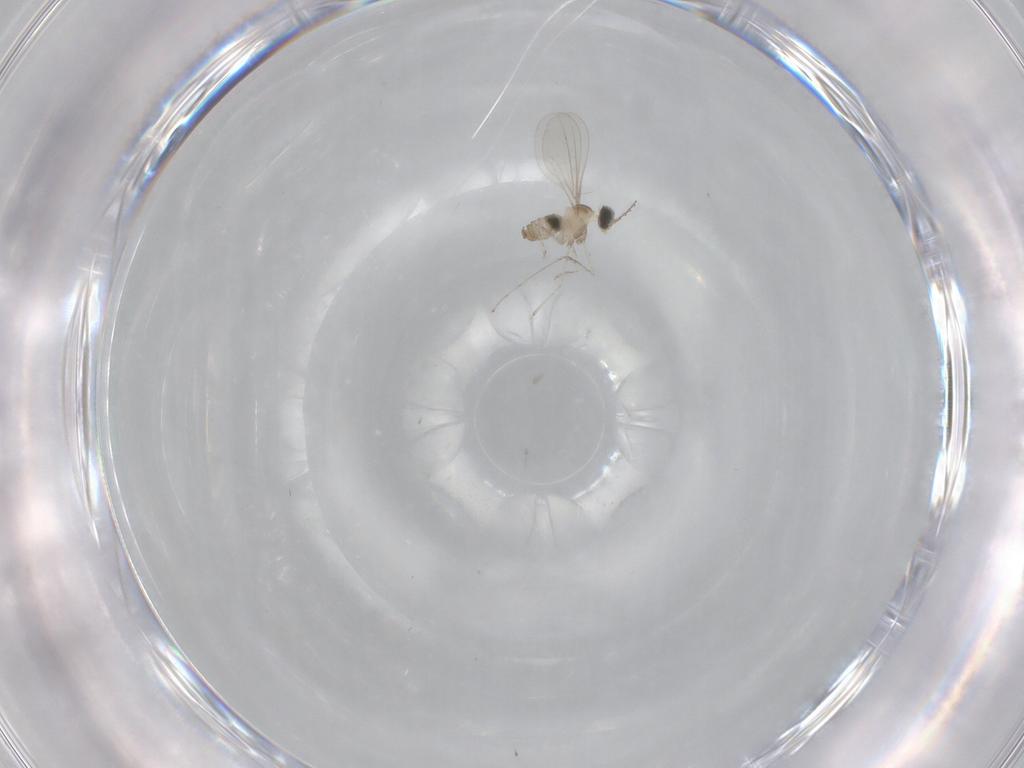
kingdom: Animalia
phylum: Arthropoda
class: Insecta
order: Diptera
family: Cecidomyiidae
